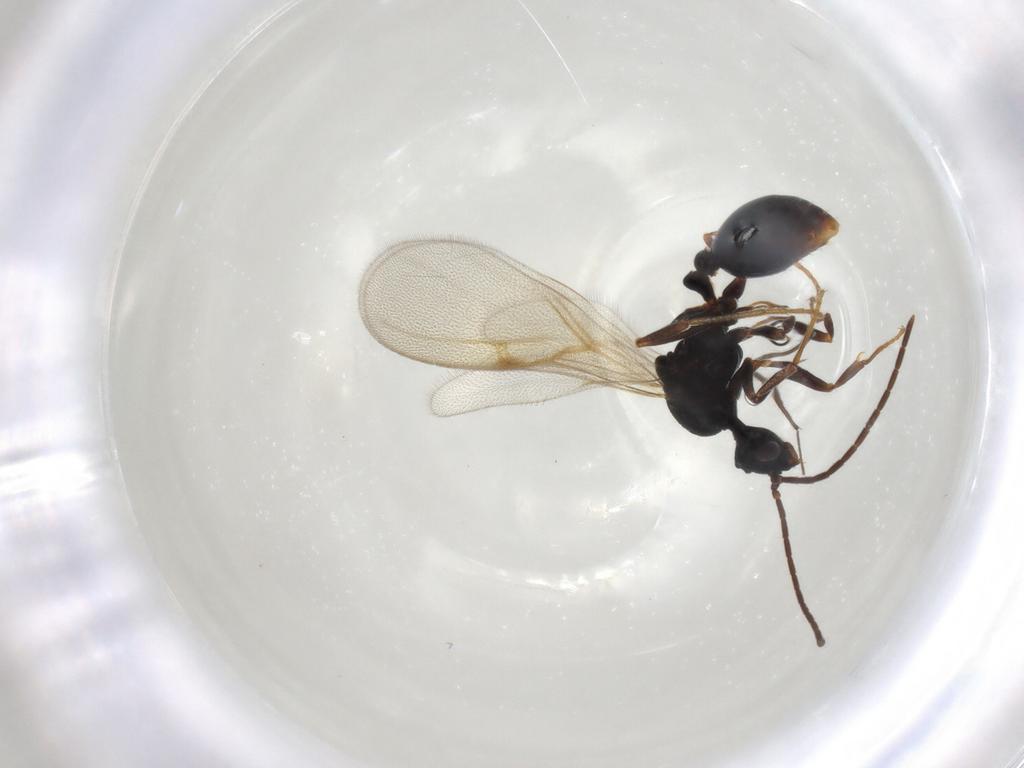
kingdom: Animalia
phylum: Arthropoda
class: Insecta
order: Hymenoptera
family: Formicidae
